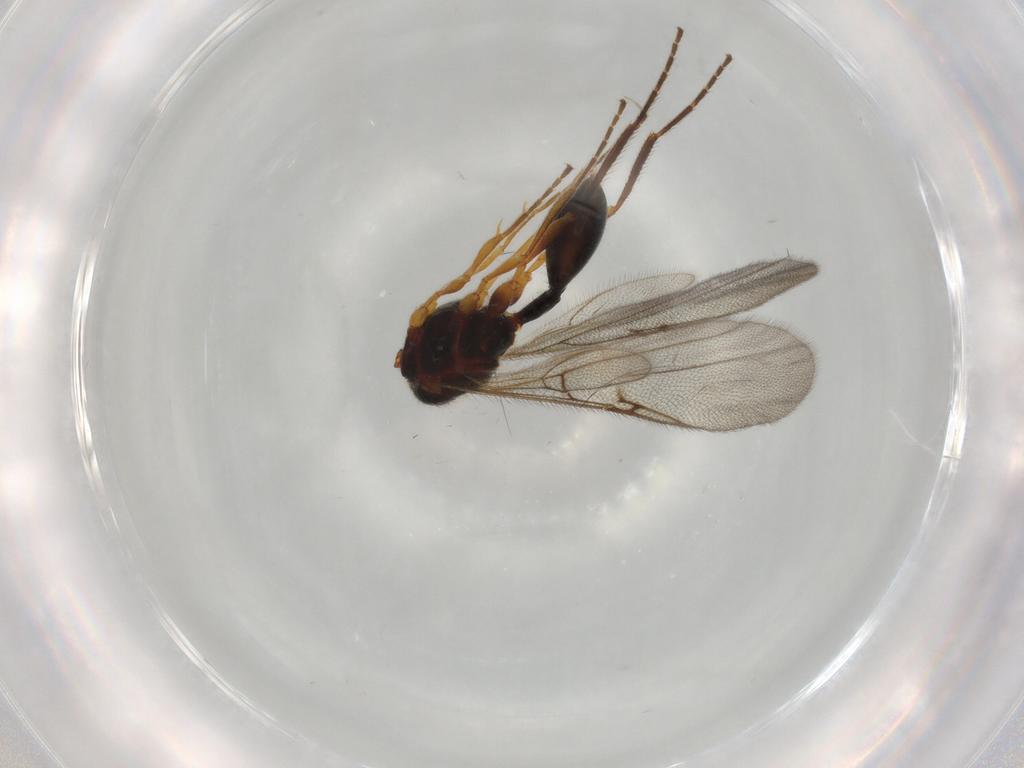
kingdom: Animalia
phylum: Arthropoda
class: Insecta
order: Hymenoptera
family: Diapriidae
